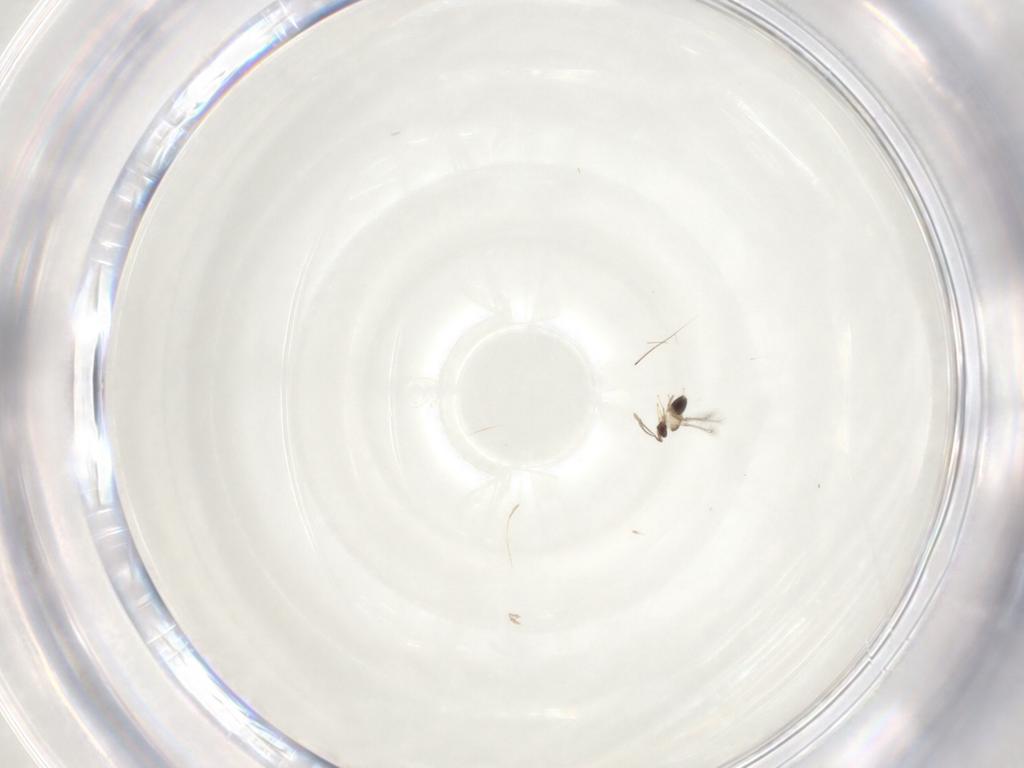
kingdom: Animalia
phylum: Arthropoda
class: Insecta
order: Hymenoptera
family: Mymaridae
